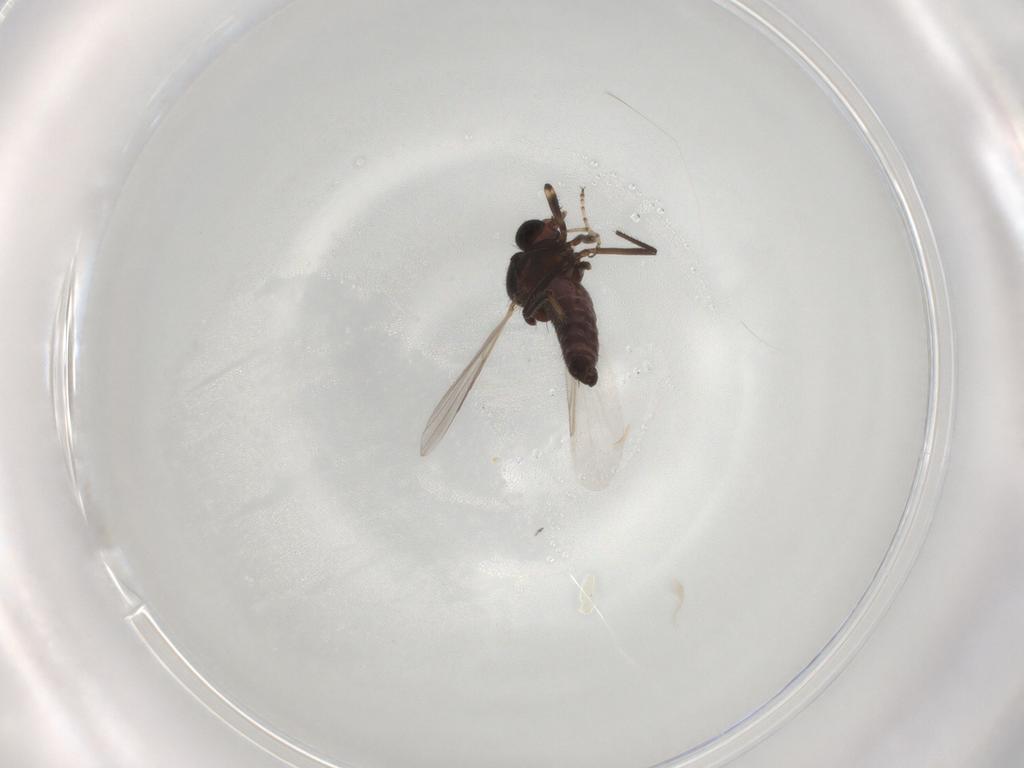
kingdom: Animalia
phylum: Arthropoda
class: Insecta
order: Diptera
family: Ceratopogonidae
